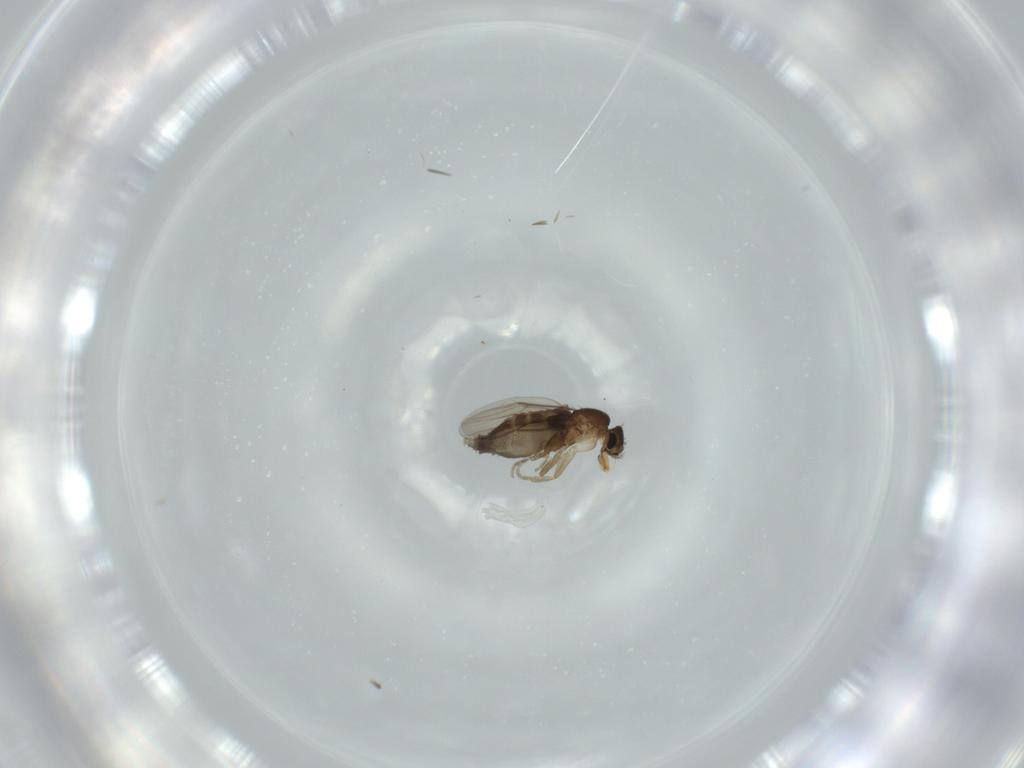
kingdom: Animalia
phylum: Arthropoda
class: Insecta
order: Diptera
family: Phoridae
